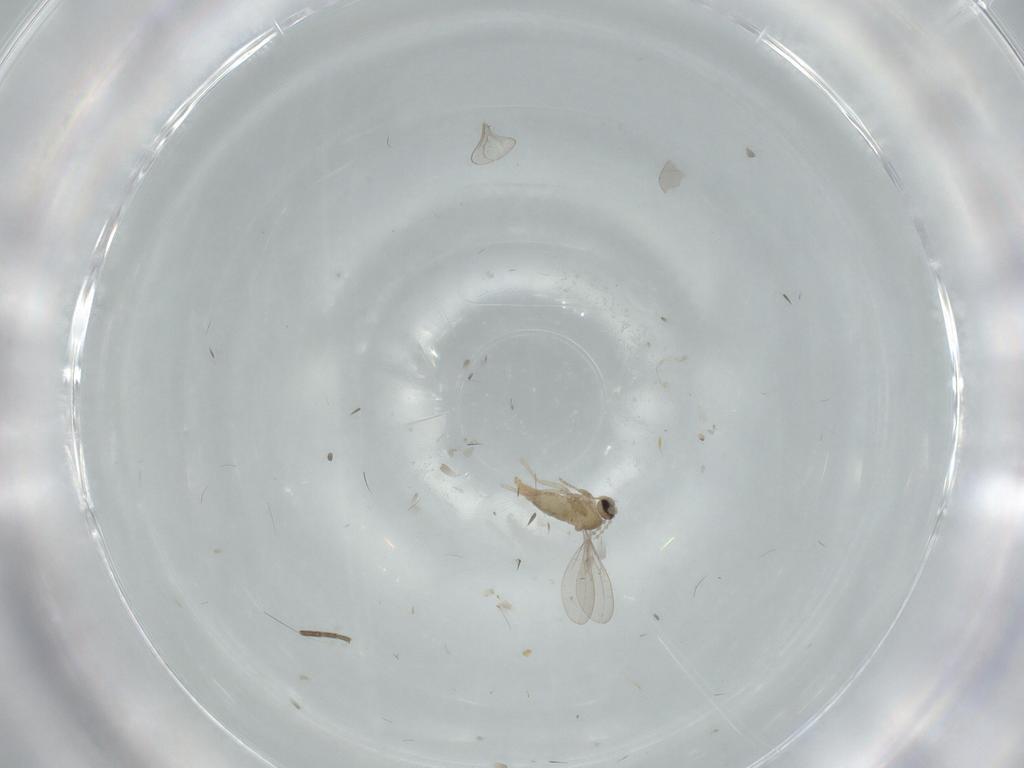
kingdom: Animalia
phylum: Arthropoda
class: Insecta
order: Diptera
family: Cecidomyiidae
